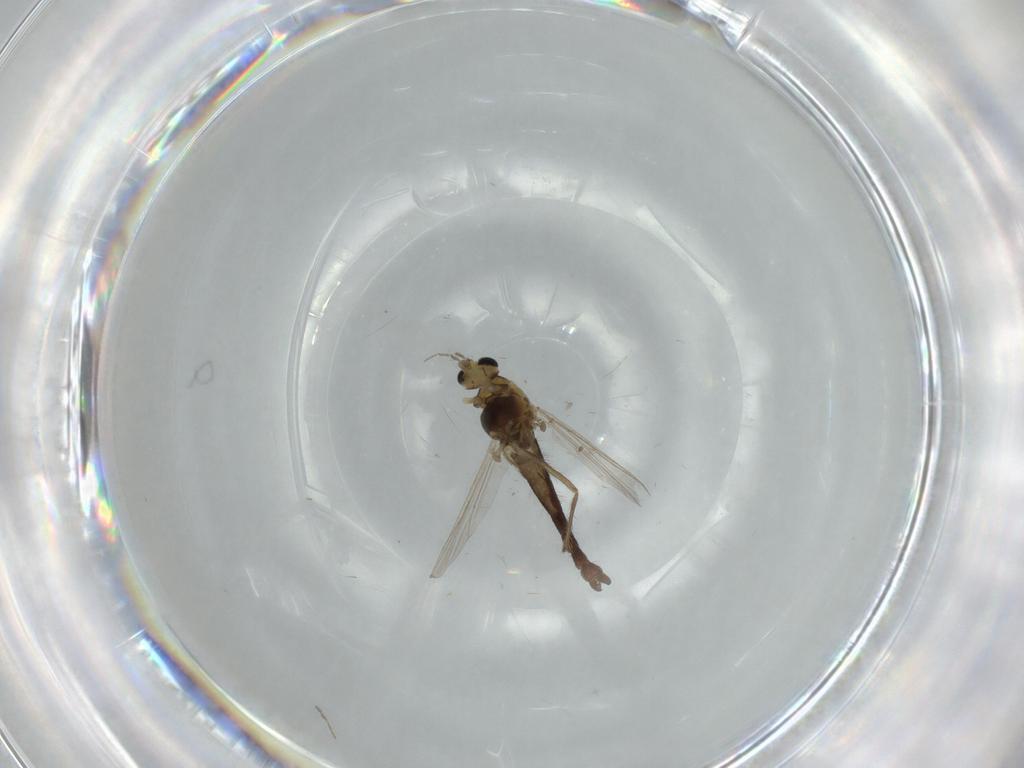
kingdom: Animalia
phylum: Arthropoda
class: Insecta
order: Diptera
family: Chironomidae
